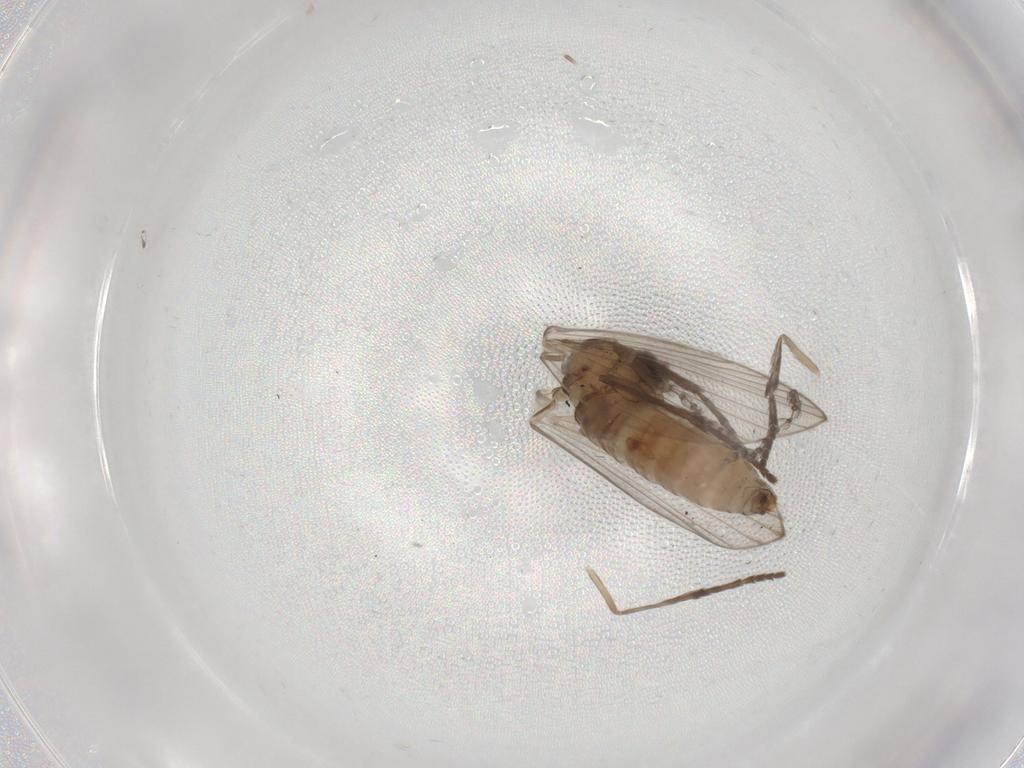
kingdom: Animalia
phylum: Arthropoda
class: Insecta
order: Diptera
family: Psychodidae
